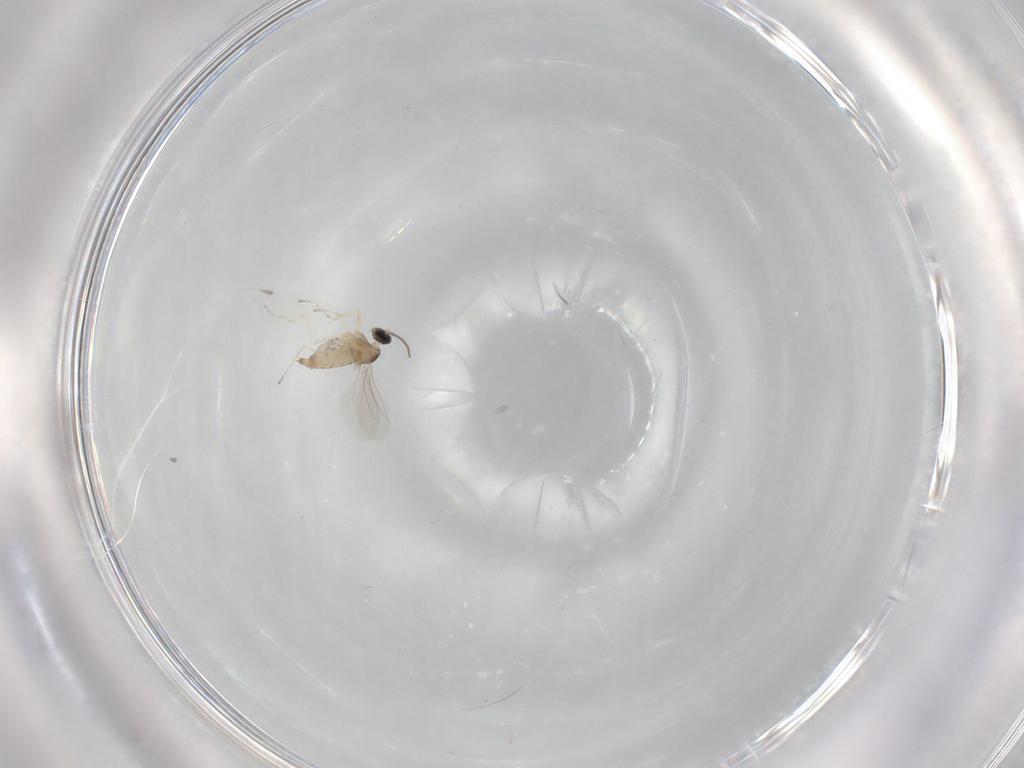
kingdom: Animalia
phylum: Arthropoda
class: Insecta
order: Diptera
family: Cecidomyiidae
